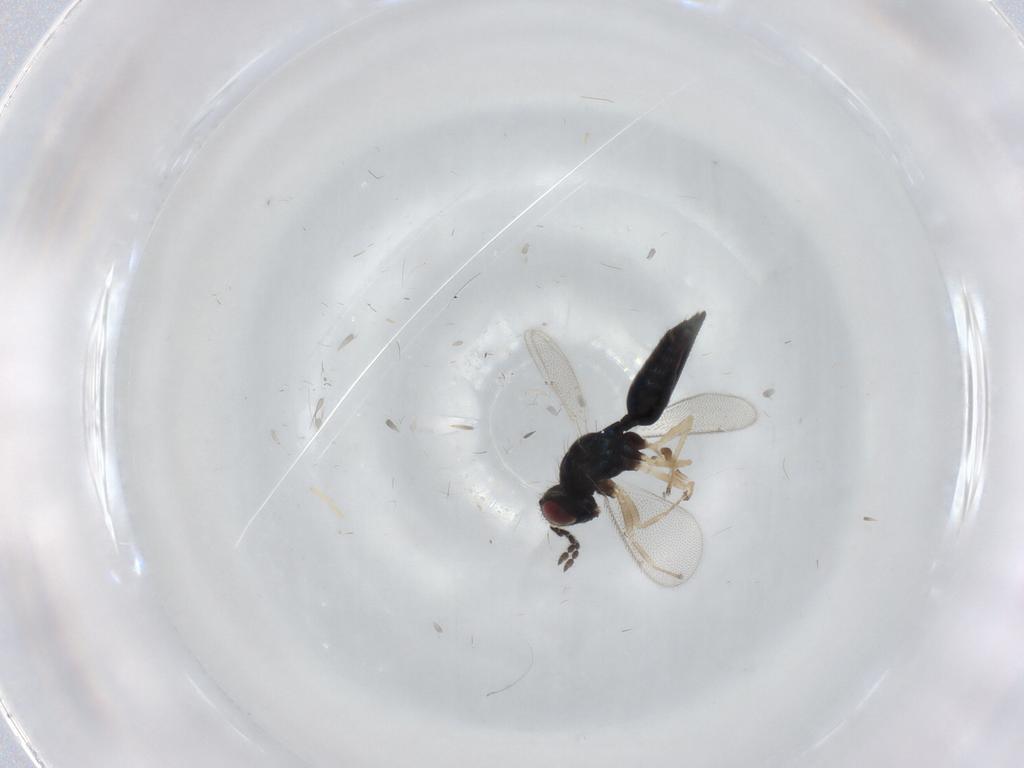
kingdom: Animalia
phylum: Arthropoda
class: Insecta
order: Hymenoptera
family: Eulophidae
